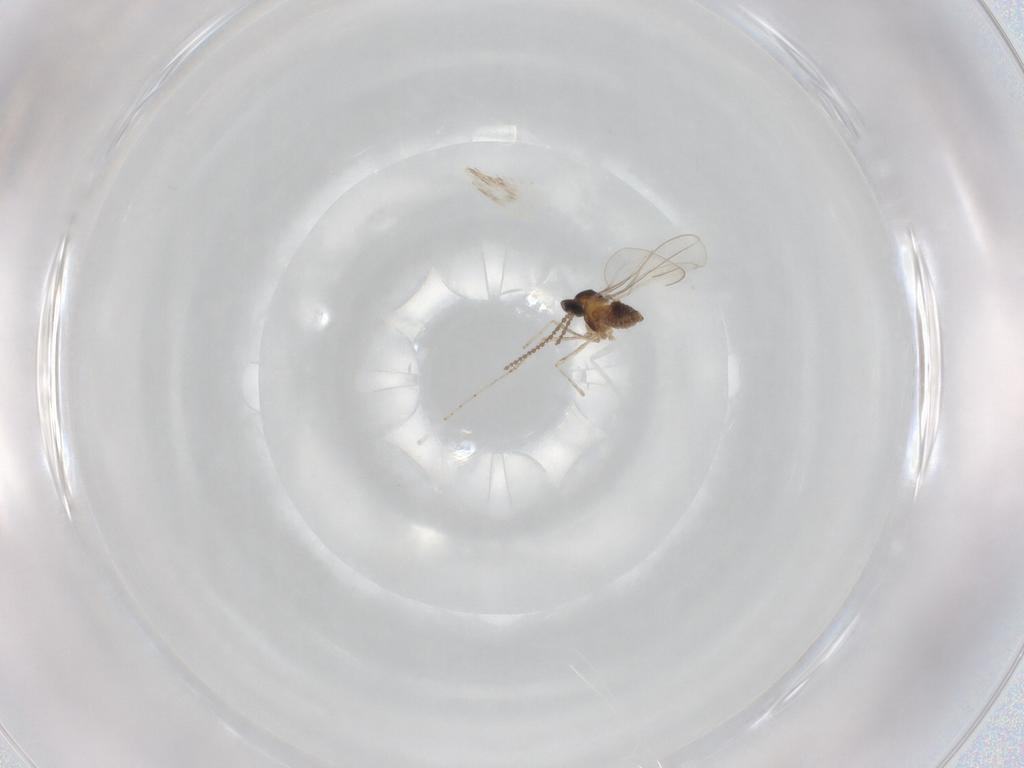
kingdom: Animalia
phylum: Arthropoda
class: Insecta
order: Diptera
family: Cecidomyiidae
